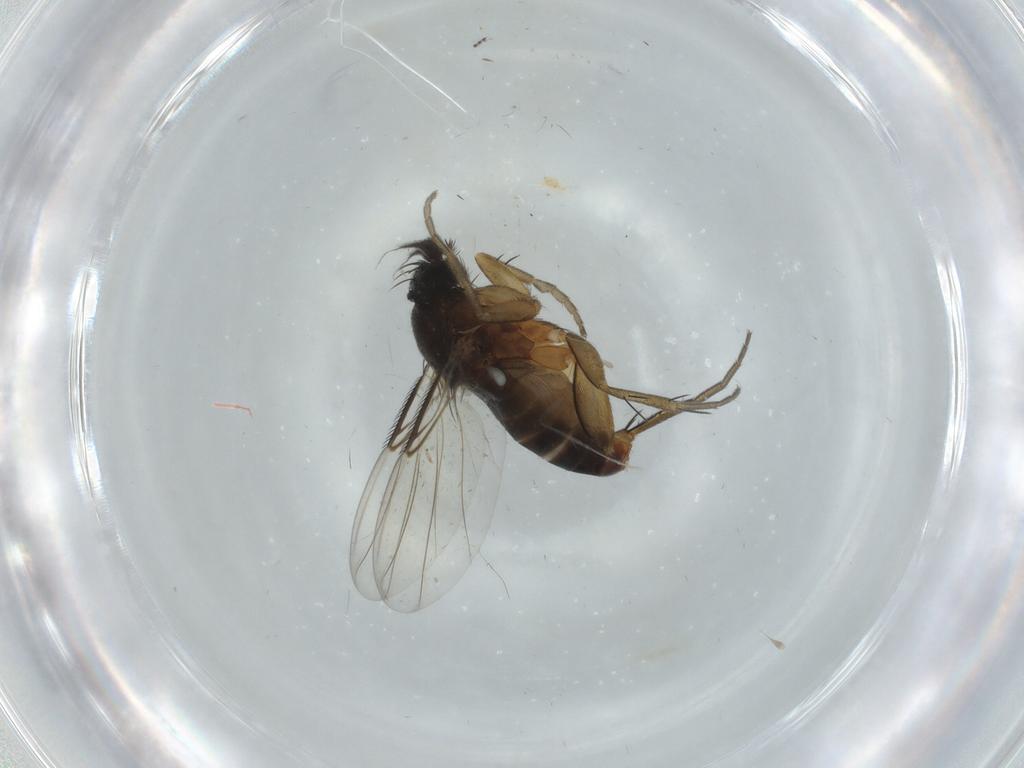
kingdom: Animalia
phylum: Arthropoda
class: Insecta
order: Diptera
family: Phoridae
